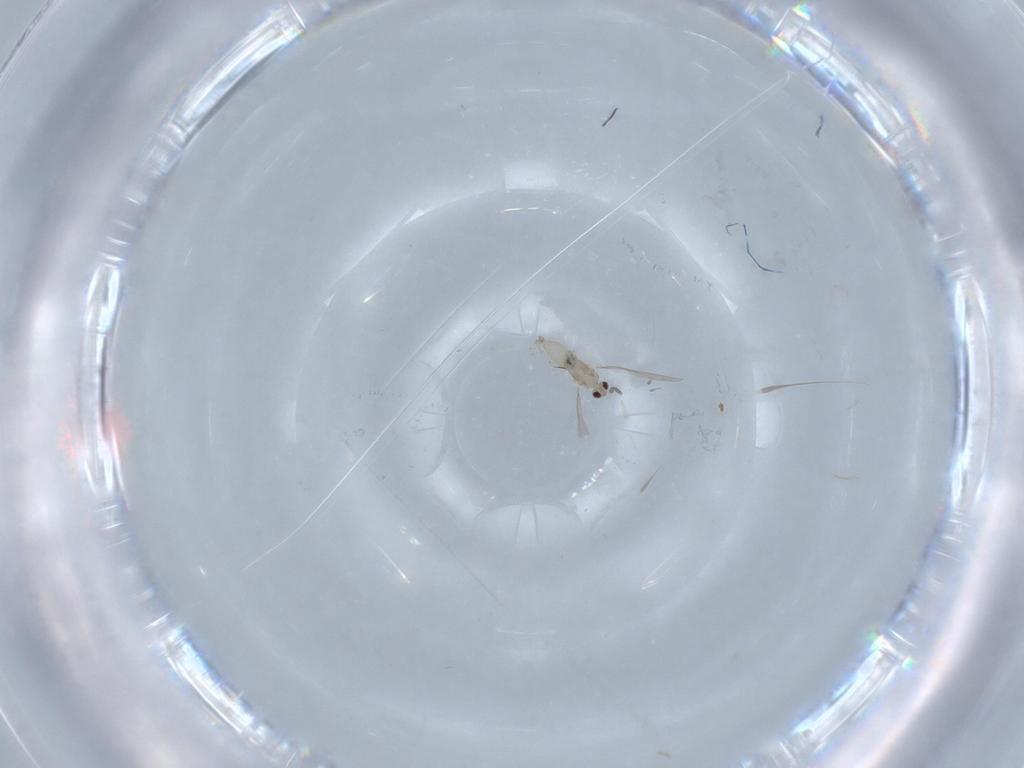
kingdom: Animalia
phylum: Arthropoda
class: Insecta
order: Diptera
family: Cecidomyiidae
